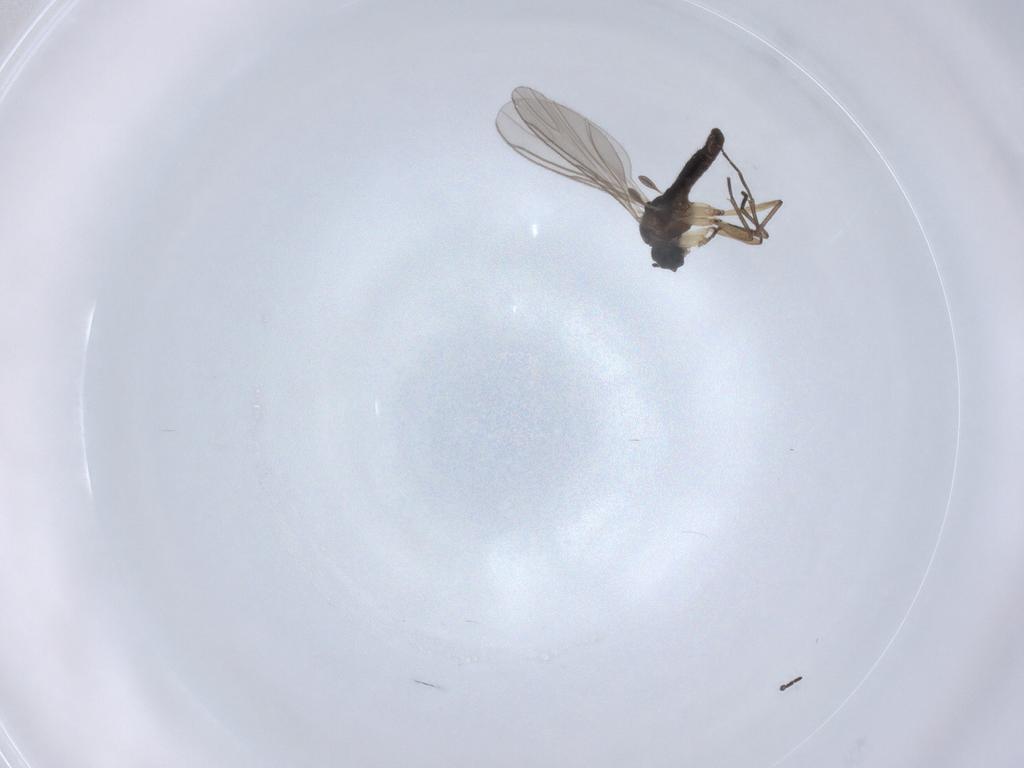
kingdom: Animalia
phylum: Arthropoda
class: Insecta
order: Diptera
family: Sciaridae
